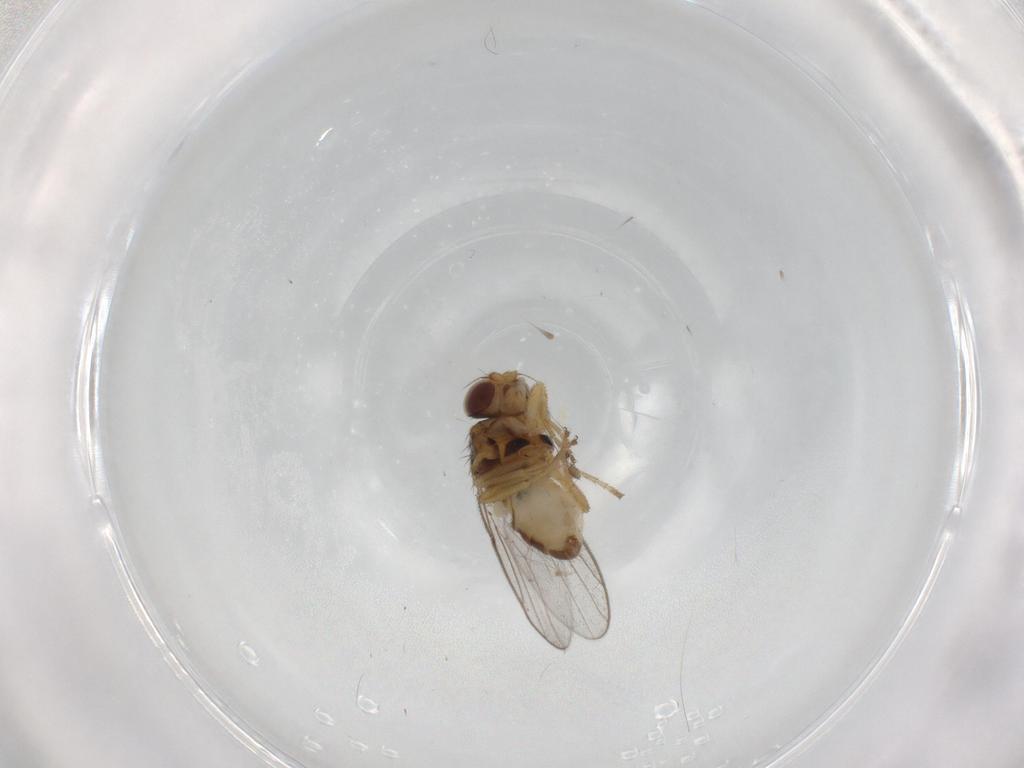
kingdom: Animalia
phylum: Arthropoda
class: Insecta
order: Diptera
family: Chloropidae
